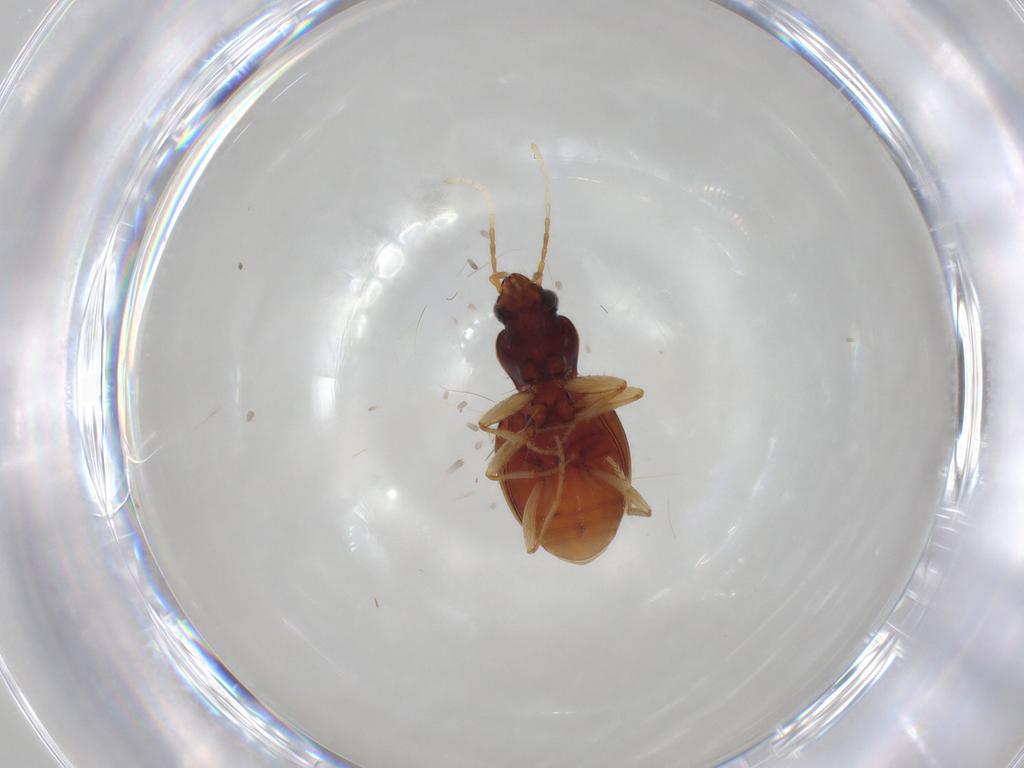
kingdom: Animalia
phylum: Arthropoda
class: Insecta
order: Coleoptera
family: Carabidae
